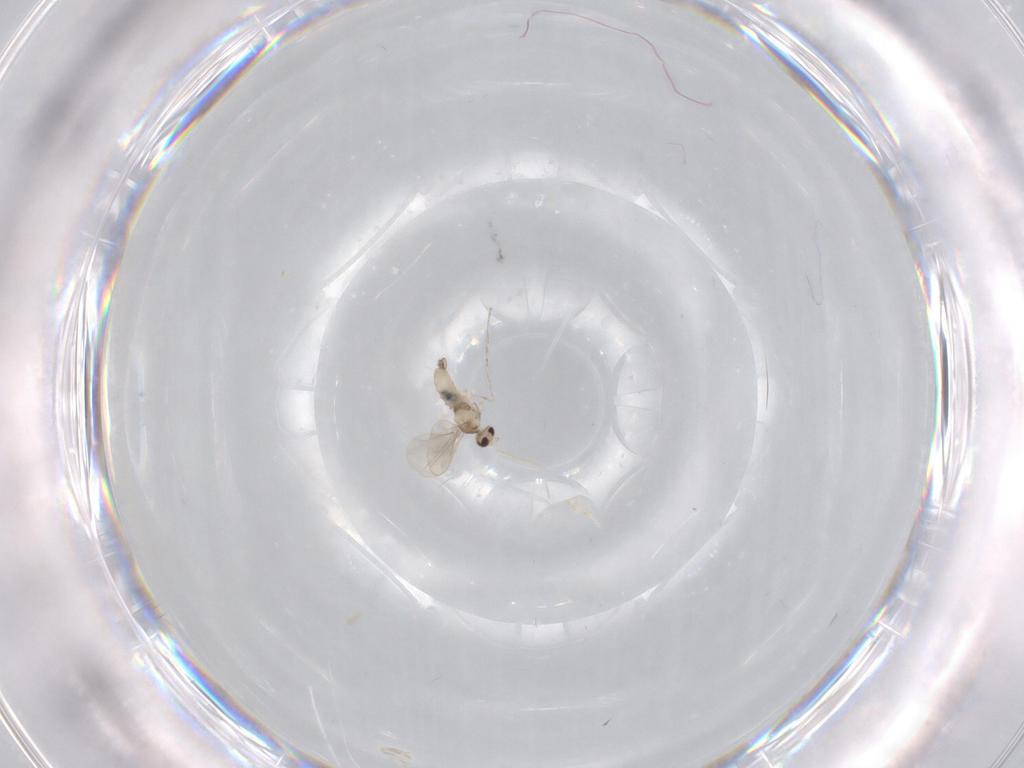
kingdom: Animalia
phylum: Arthropoda
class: Insecta
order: Diptera
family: Cecidomyiidae
